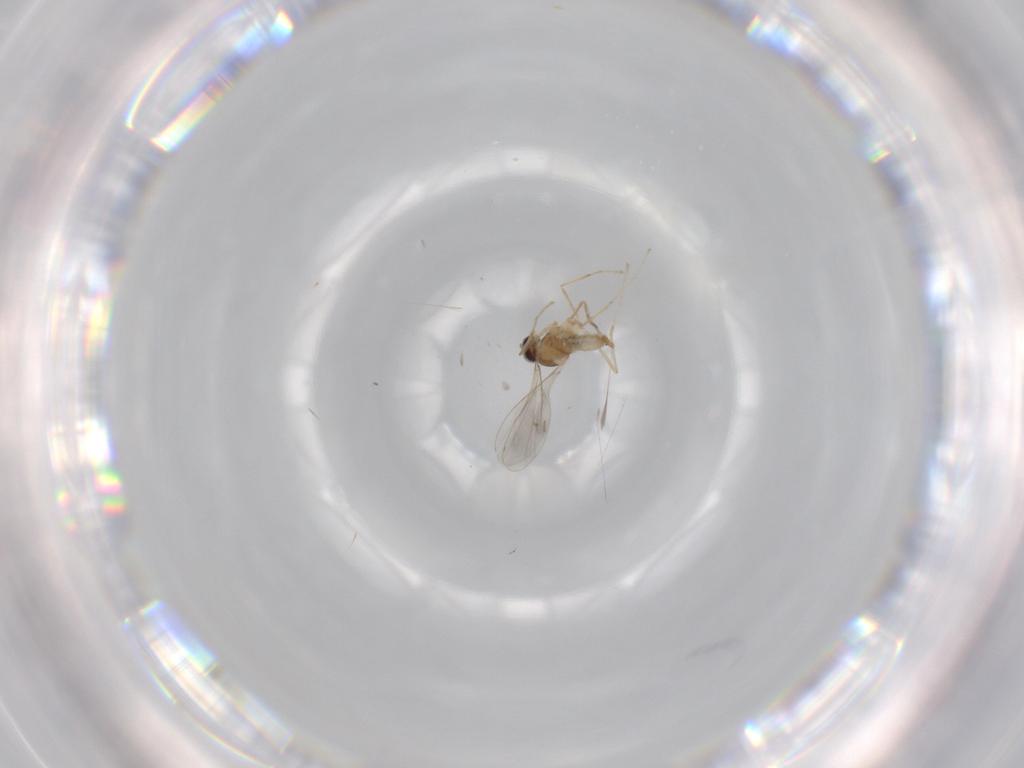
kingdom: Animalia
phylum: Arthropoda
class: Insecta
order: Diptera
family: Cecidomyiidae
